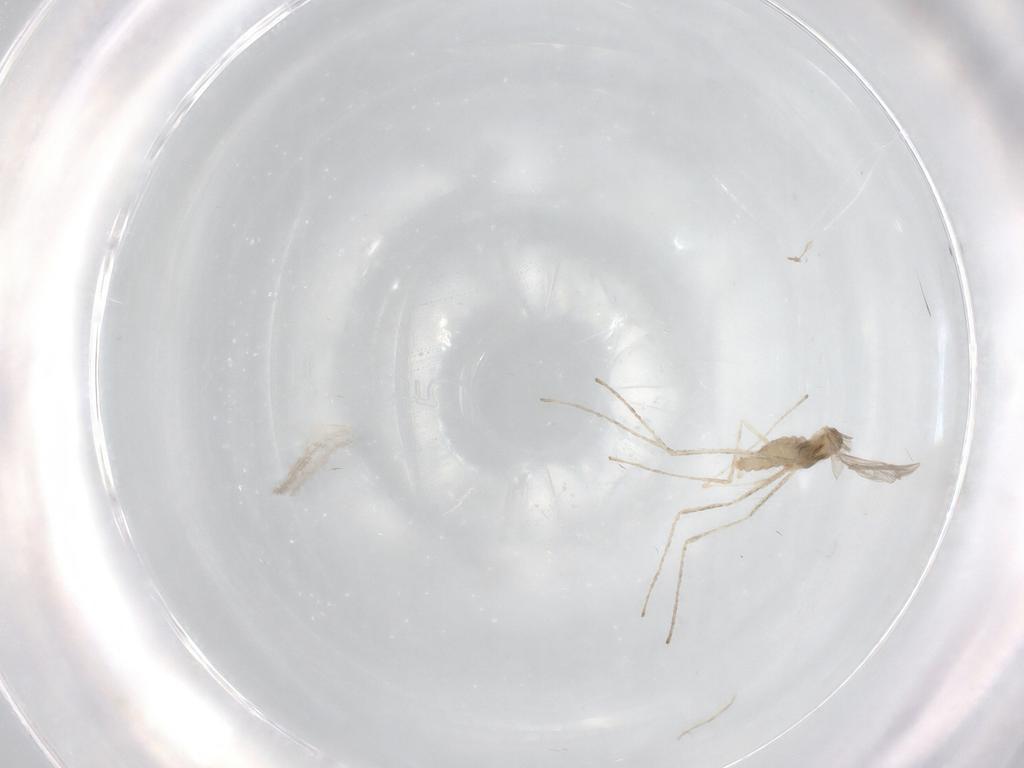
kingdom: Animalia
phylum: Arthropoda
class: Insecta
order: Diptera
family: Cecidomyiidae
